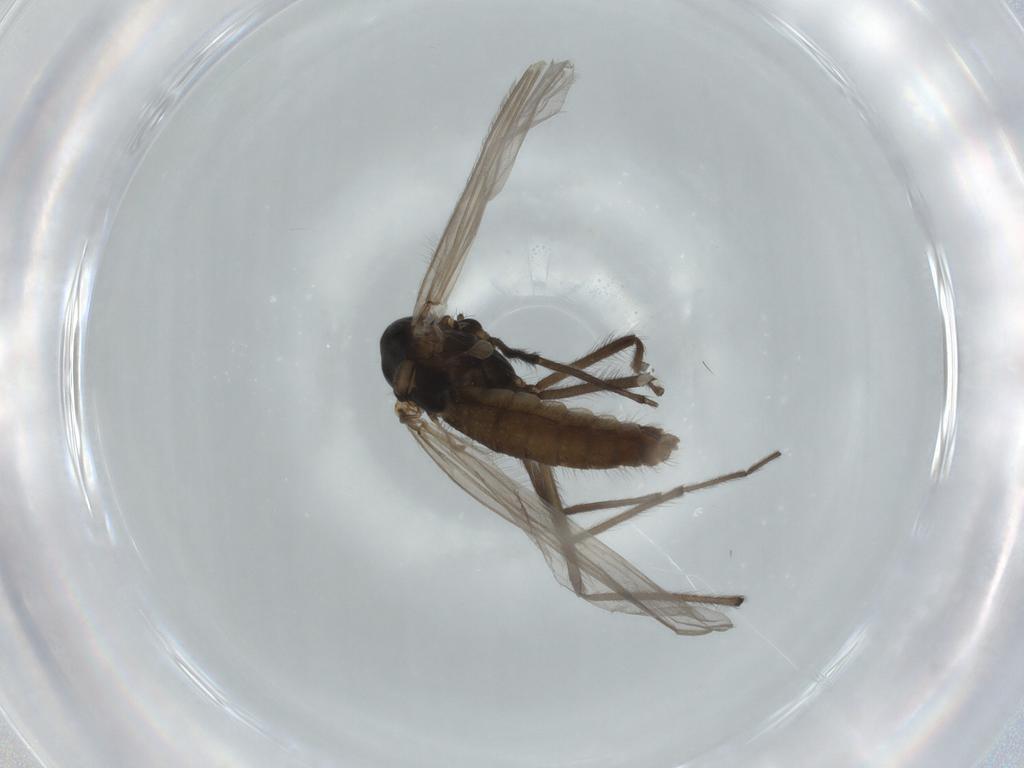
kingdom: Animalia
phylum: Arthropoda
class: Insecta
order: Diptera
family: Chironomidae
